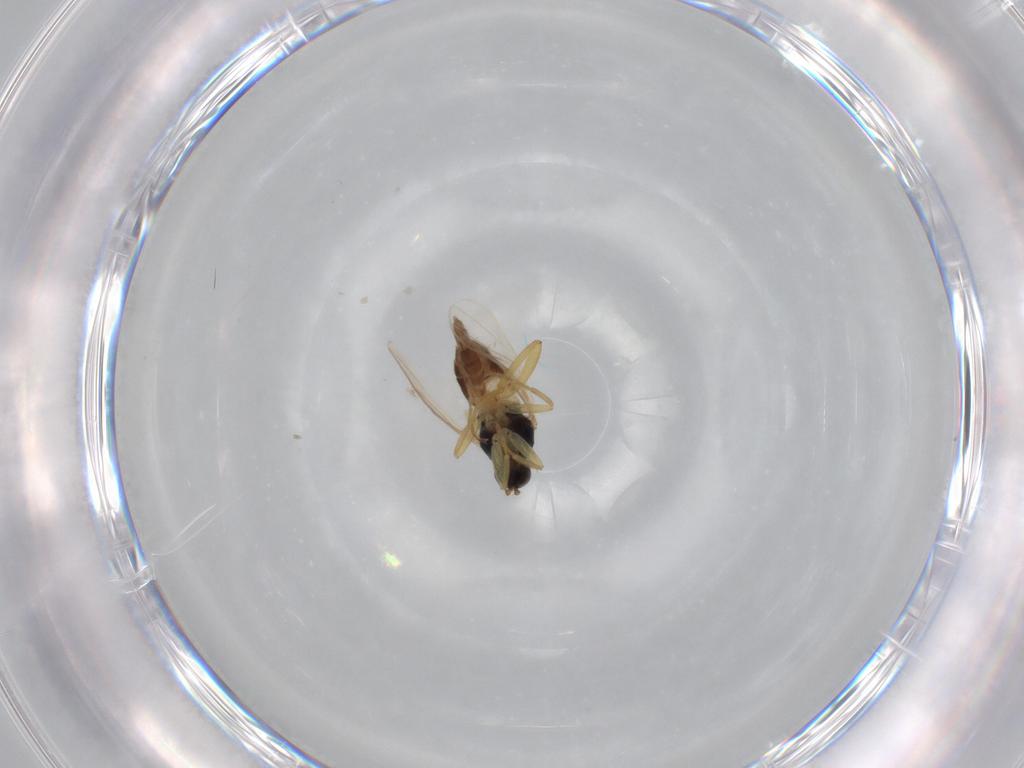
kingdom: Animalia
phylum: Arthropoda
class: Insecta
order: Diptera
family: Hybotidae
